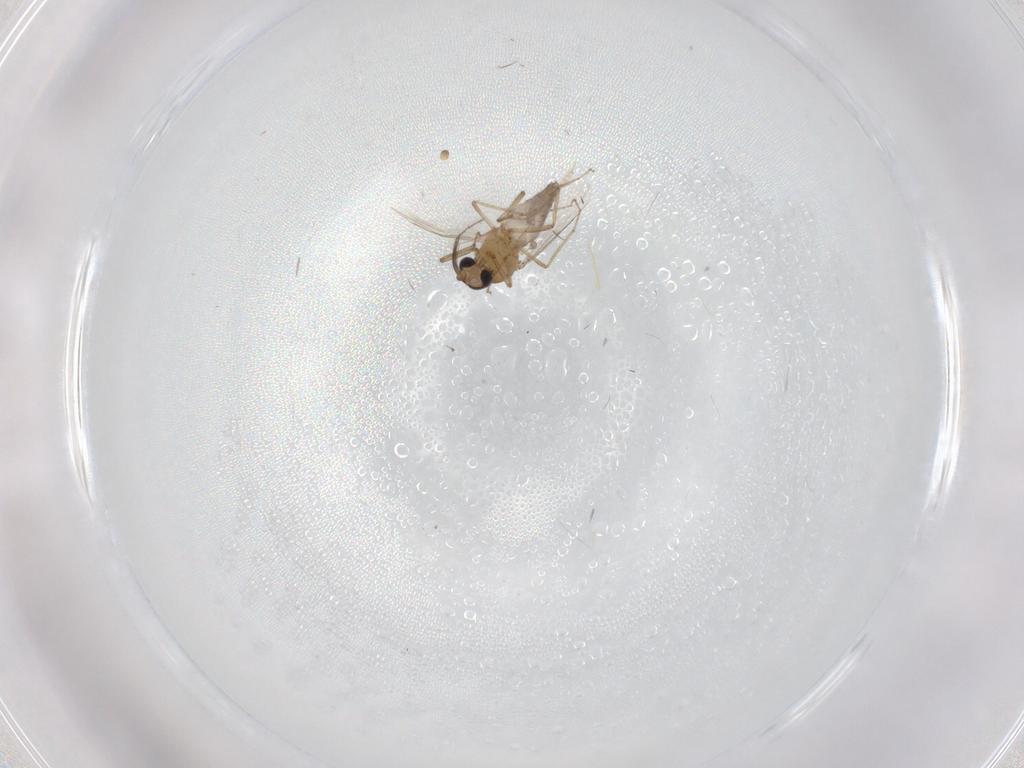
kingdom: Animalia
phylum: Arthropoda
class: Insecta
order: Diptera
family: Ceratopogonidae
